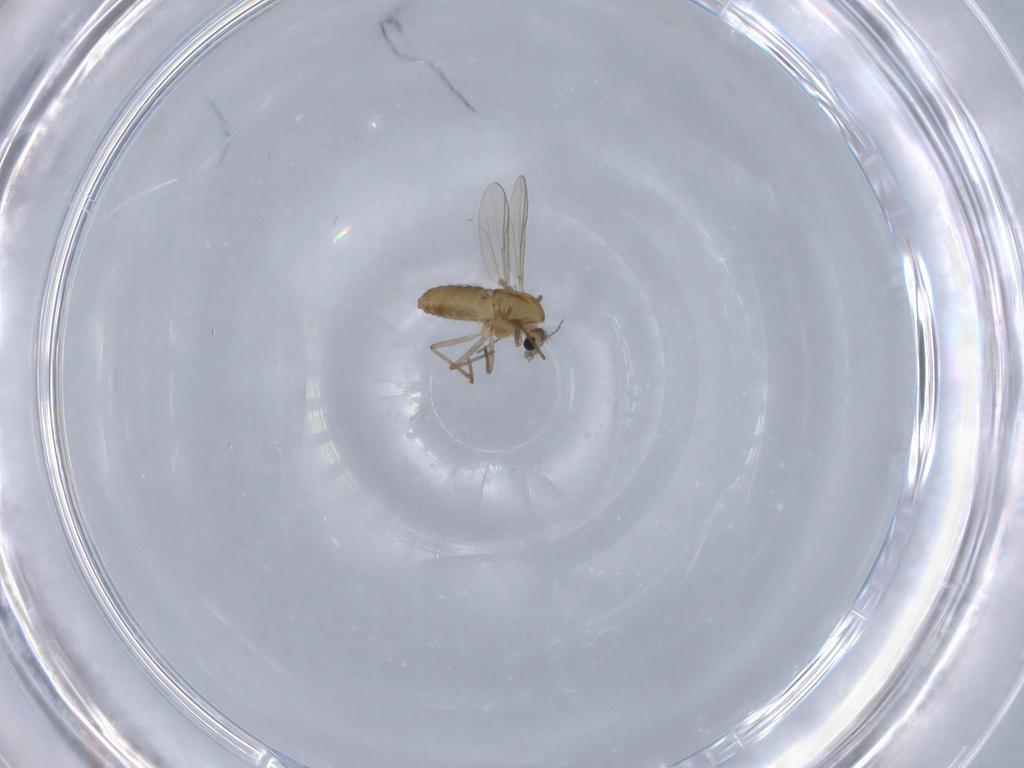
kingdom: Animalia
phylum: Arthropoda
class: Insecta
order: Diptera
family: Chironomidae
